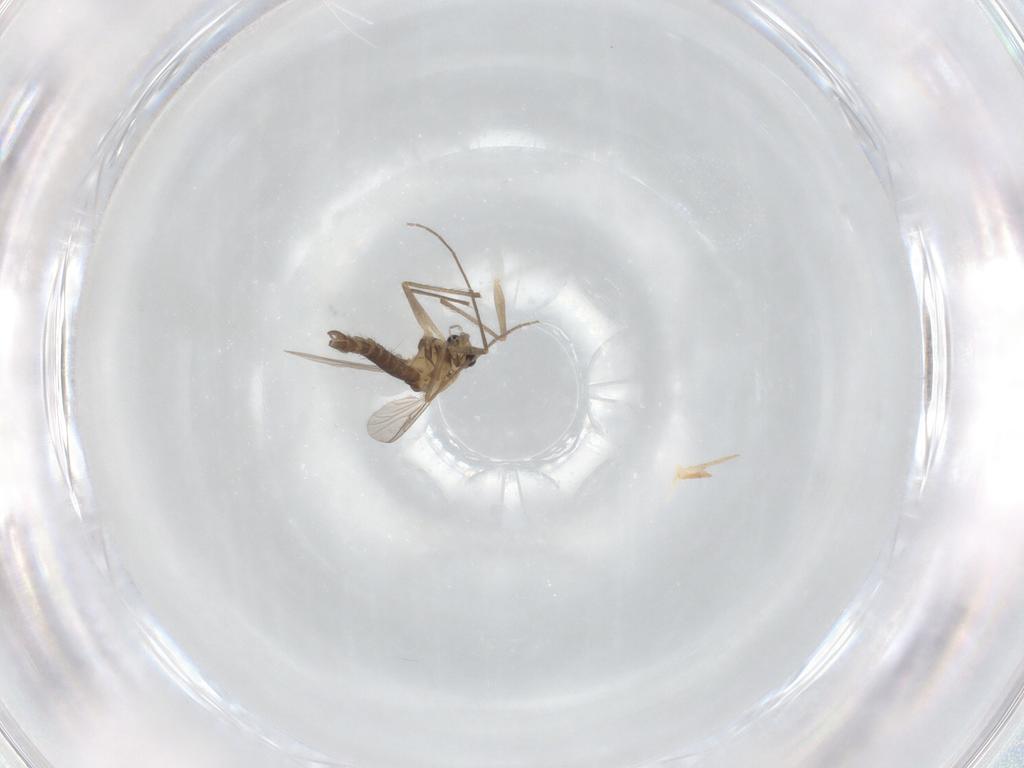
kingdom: Animalia
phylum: Arthropoda
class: Insecta
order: Diptera
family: Chironomidae
